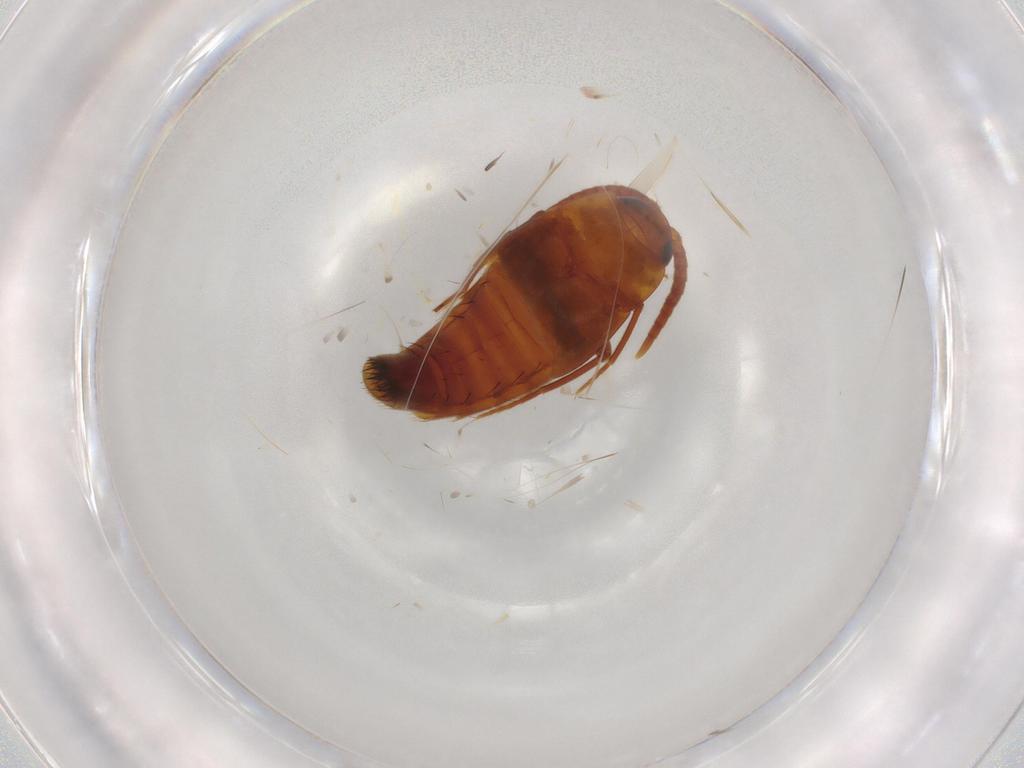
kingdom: Animalia
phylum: Arthropoda
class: Insecta
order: Coleoptera
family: Staphylinidae
